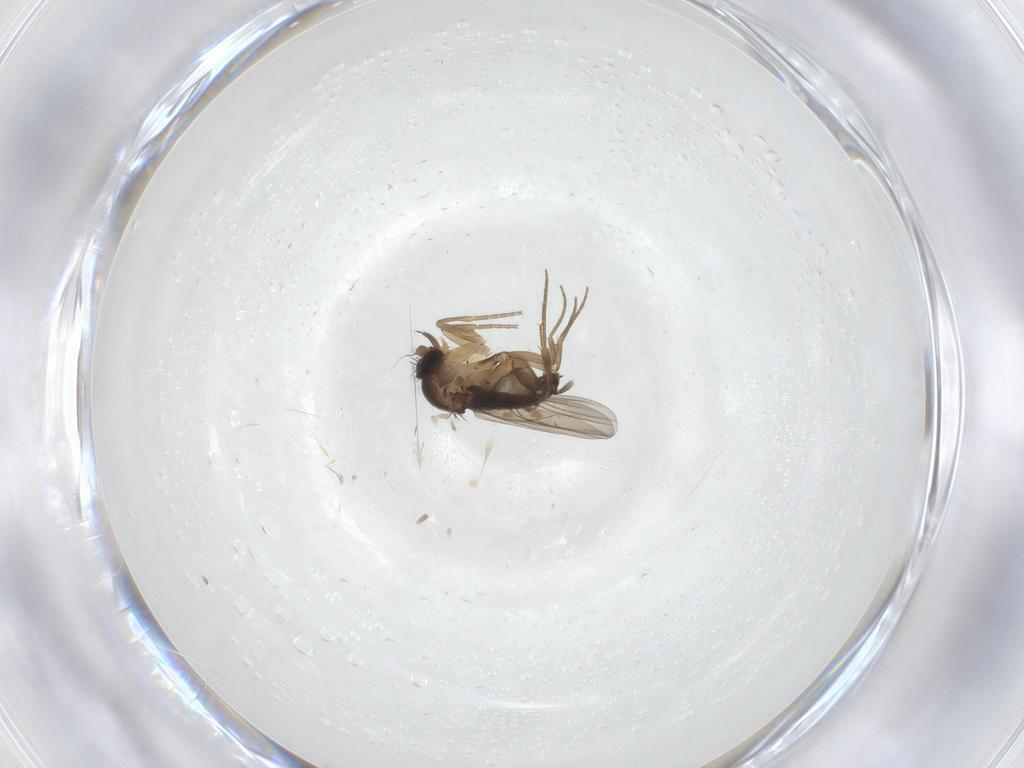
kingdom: Animalia
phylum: Arthropoda
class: Insecta
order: Diptera
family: Phoridae
